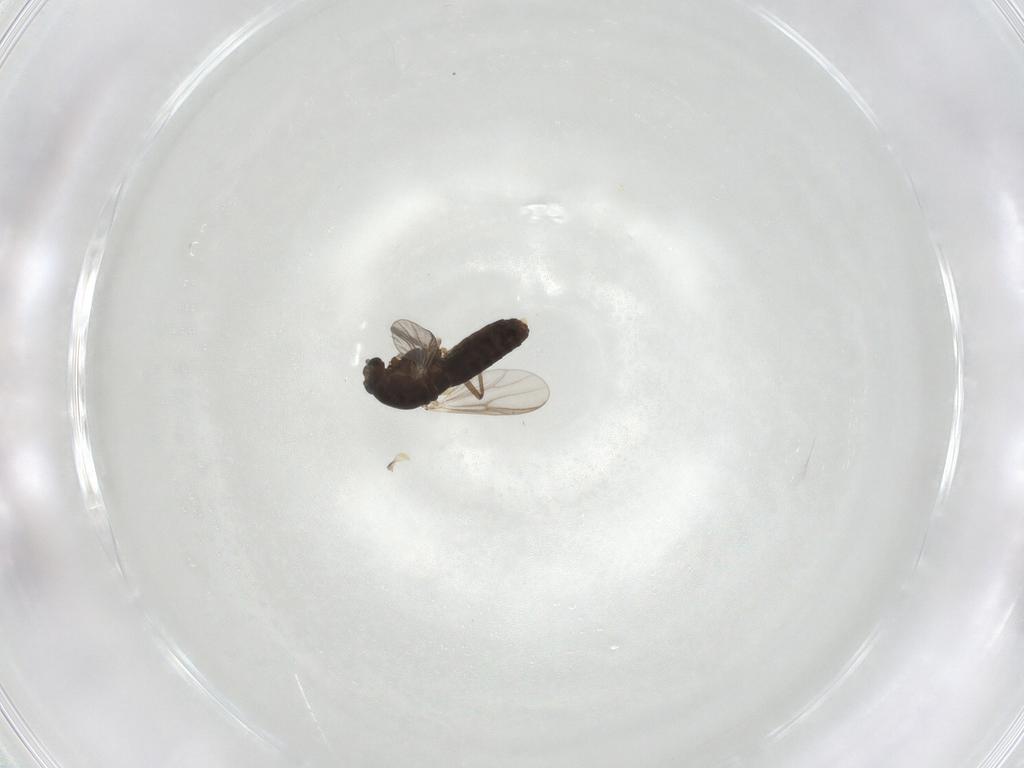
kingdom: Animalia
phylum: Arthropoda
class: Insecta
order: Diptera
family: Chironomidae
